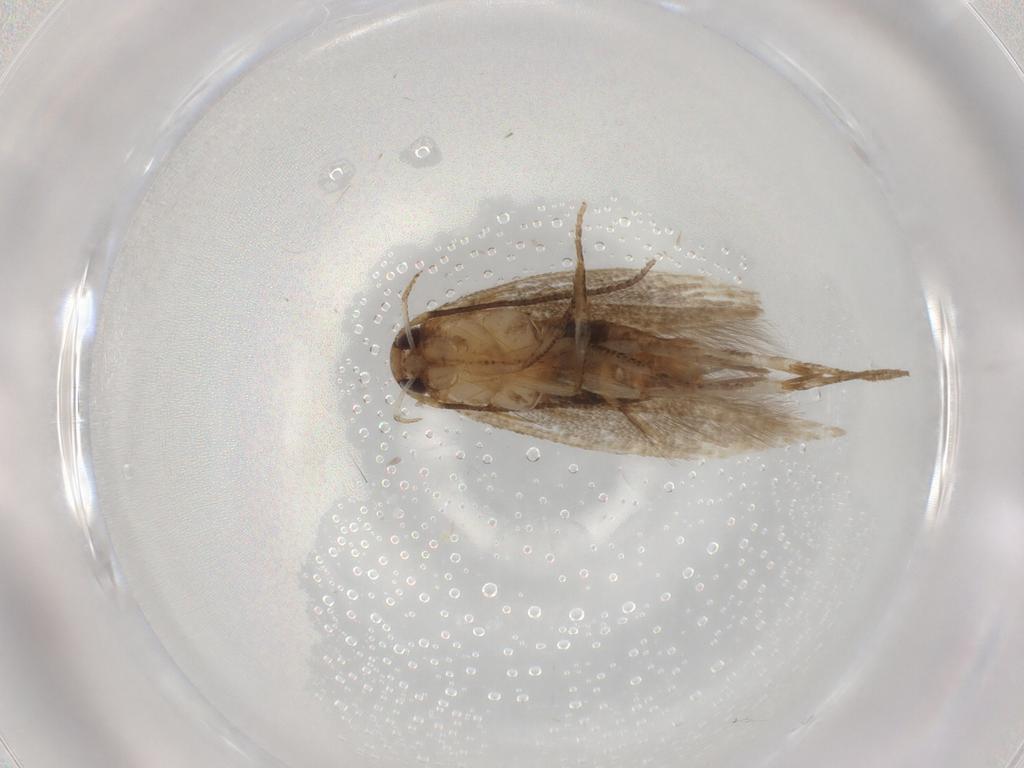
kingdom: Animalia
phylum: Arthropoda
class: Insecta
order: Lepidoptera
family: Cosmopterigidae
